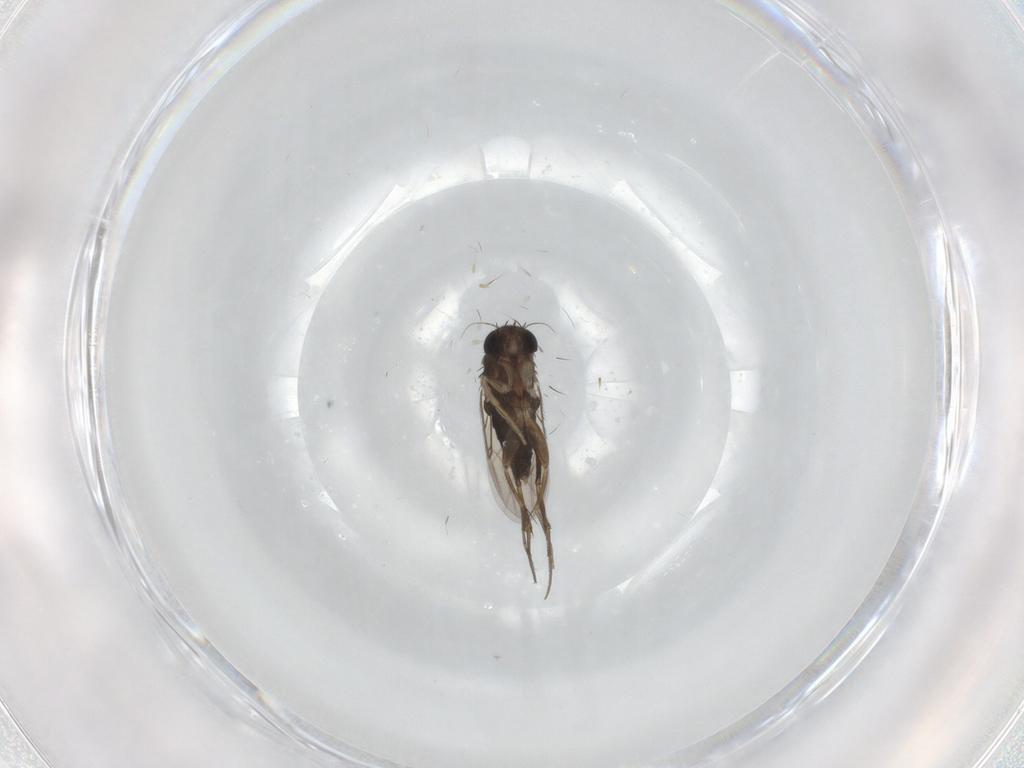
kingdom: Animalia
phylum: Arthropoda
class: Insecta
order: Diptera
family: Phoridae
